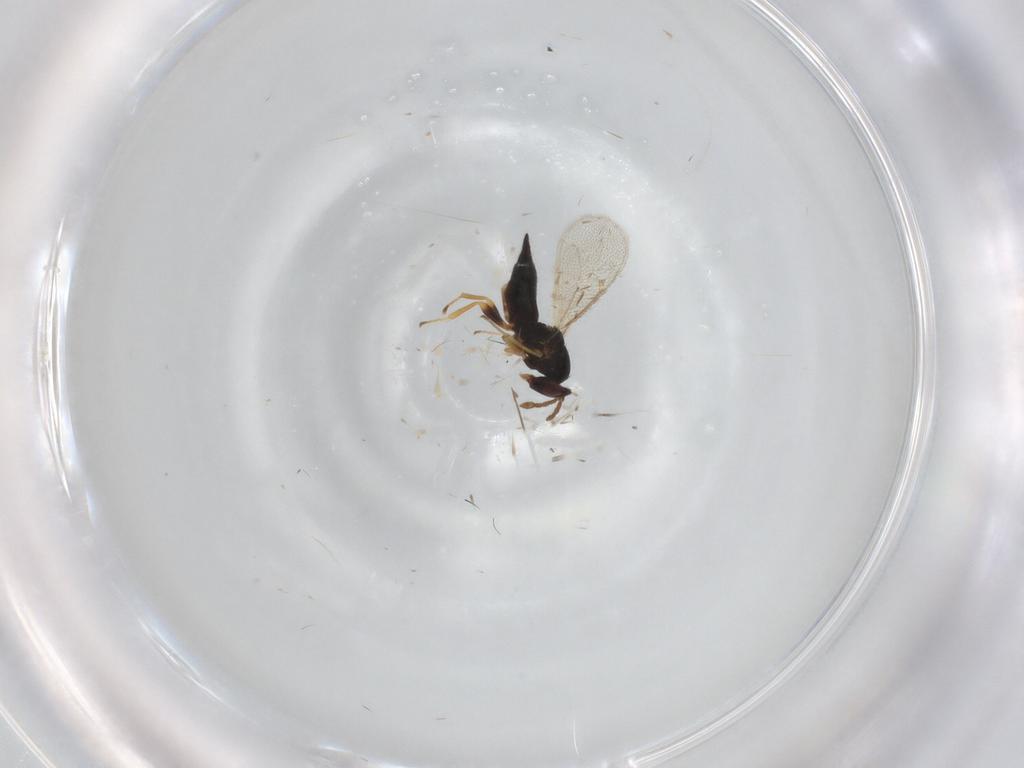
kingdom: Animalia
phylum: Arthropoda
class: Insecta
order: Hymenoptera
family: Eulophidae
